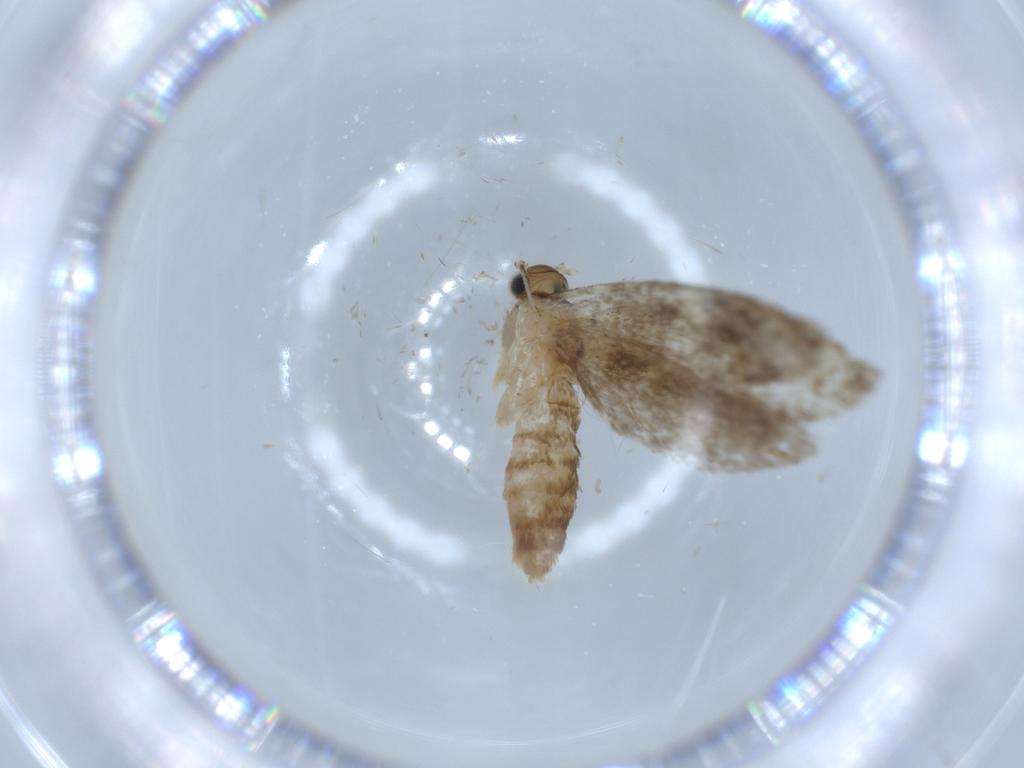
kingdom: Animalia
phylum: Arthropoda
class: Insecta
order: Lepidoptera
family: Tineidae
